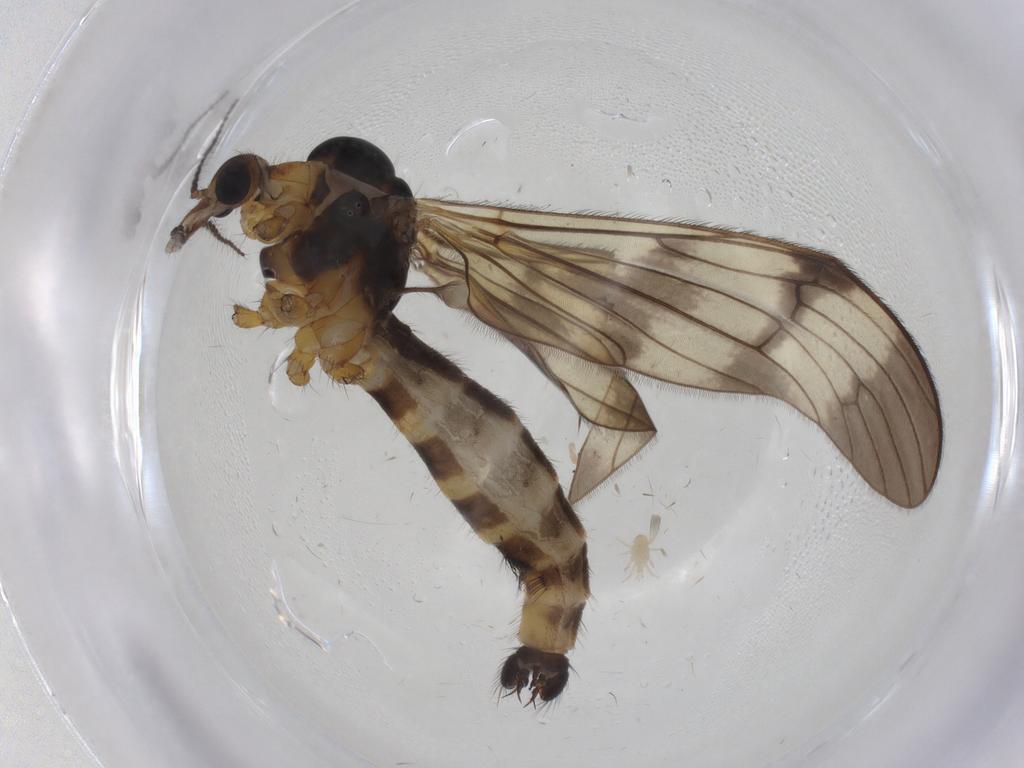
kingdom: Animalia
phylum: Arthropoda
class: Insecta
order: Diptera
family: Limoniidae
